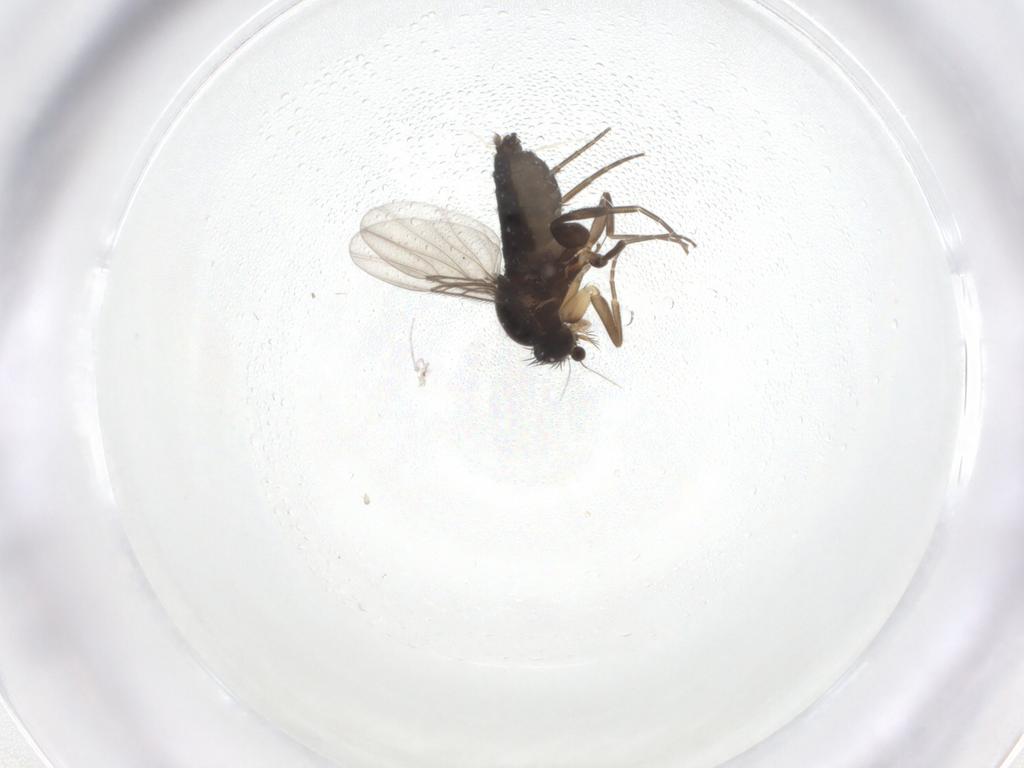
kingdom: Animalia
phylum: Arthropoda
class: Insecta
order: Diptera
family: Phoridae
